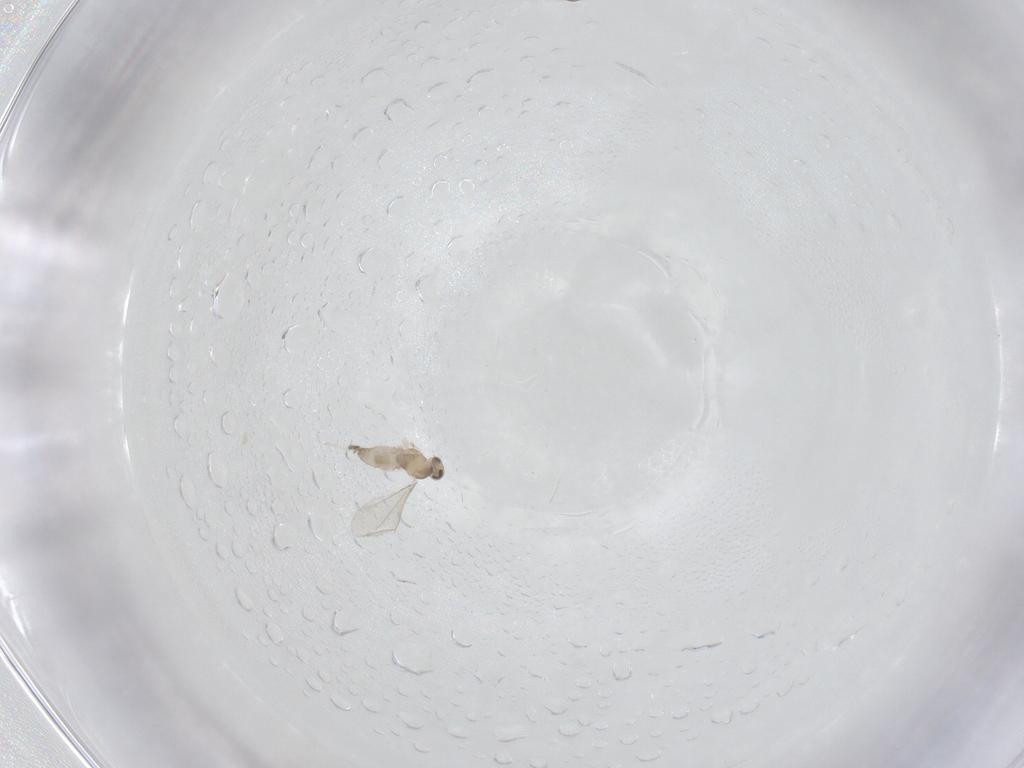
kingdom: Animalia
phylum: Arthropoda
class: Insecta
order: Diptera
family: Cecidomyiidae
